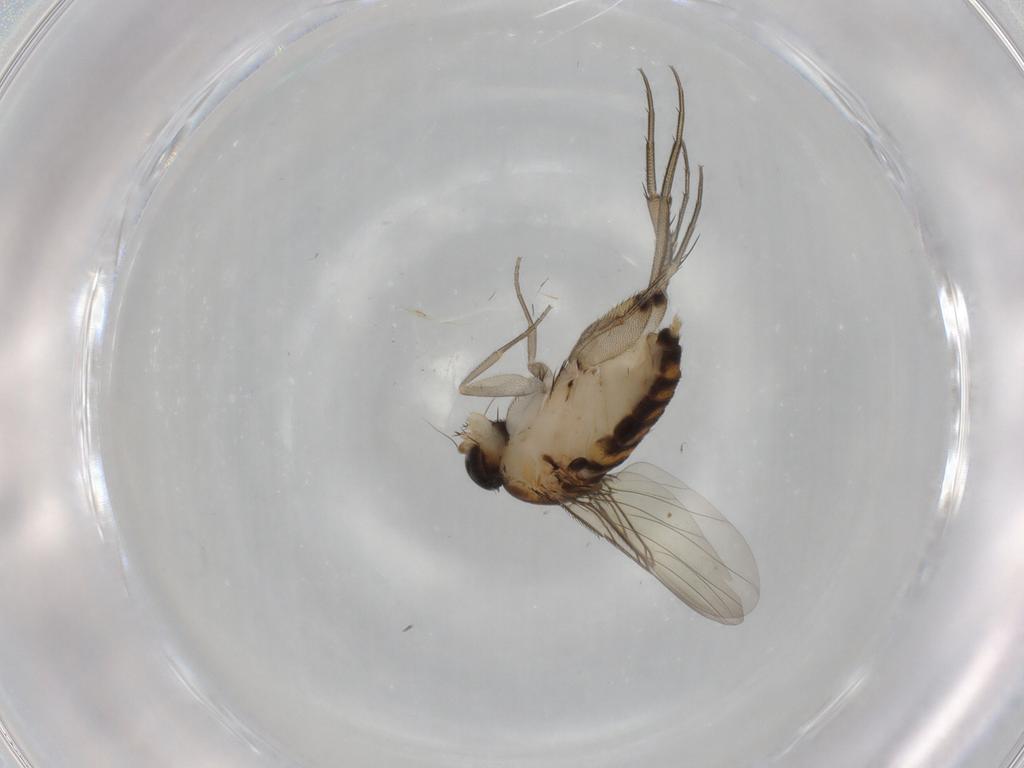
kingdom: Animalia
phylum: Arthropoda
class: Insecta
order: Diptera
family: Phoridae
